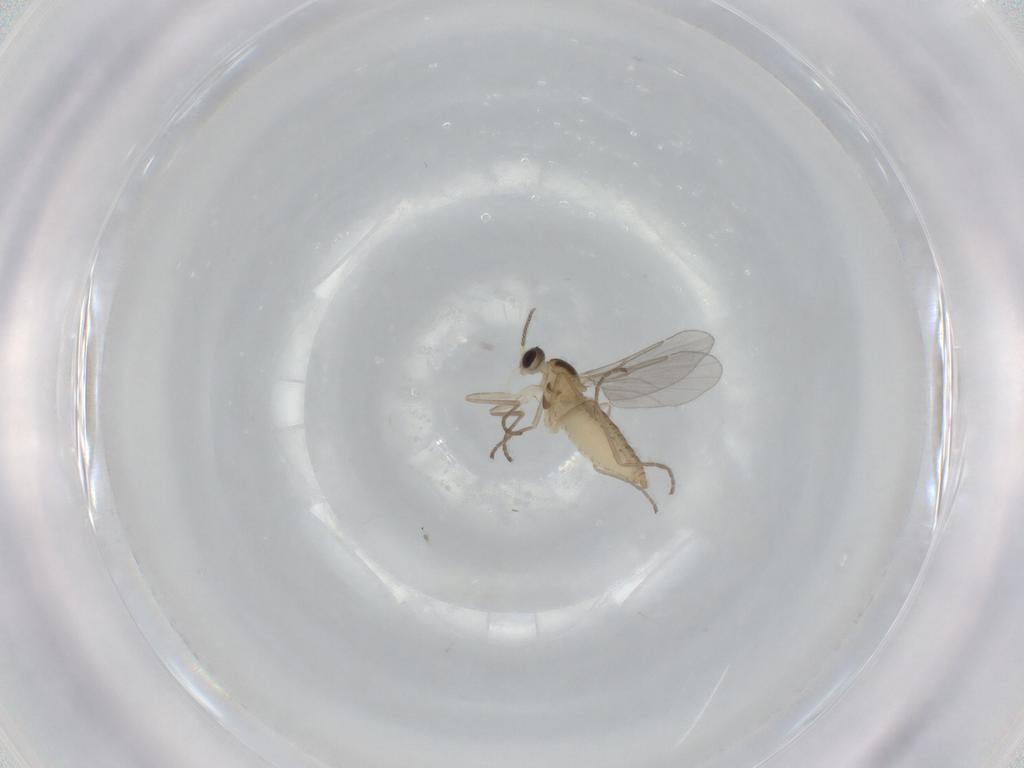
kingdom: Animalia
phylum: Arthropoda
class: Insecta
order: Diptera
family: Cecidomyiidae
